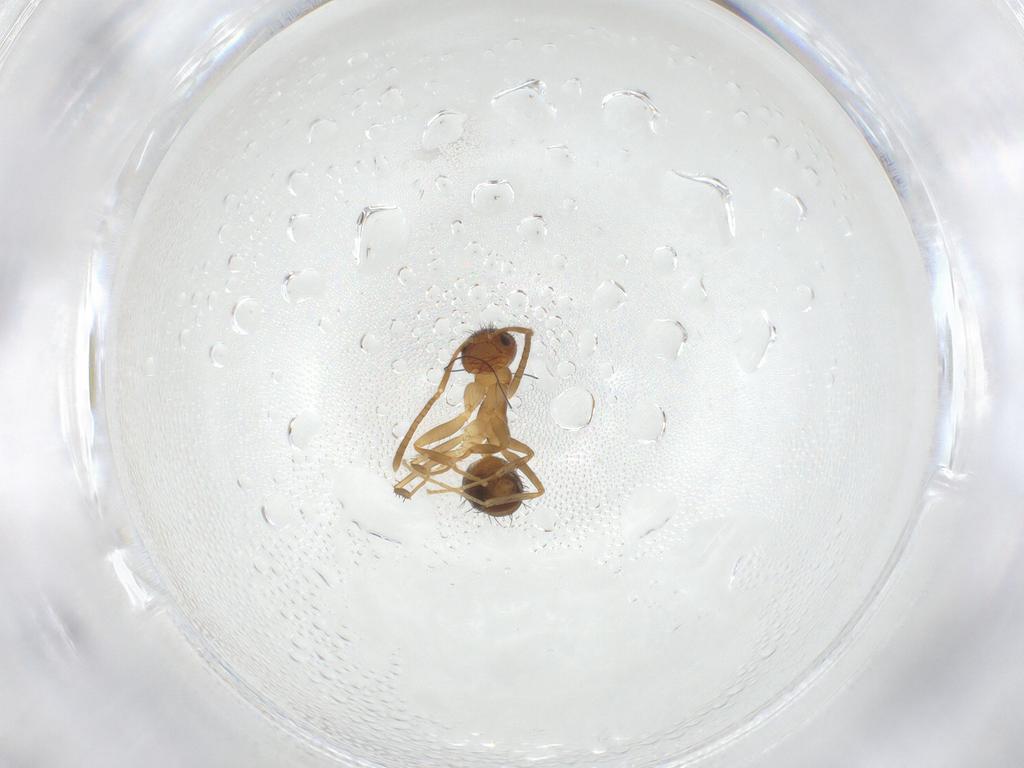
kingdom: Animalia
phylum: Arthropoda
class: Insecta
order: Hymenoptera
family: Formicidae
